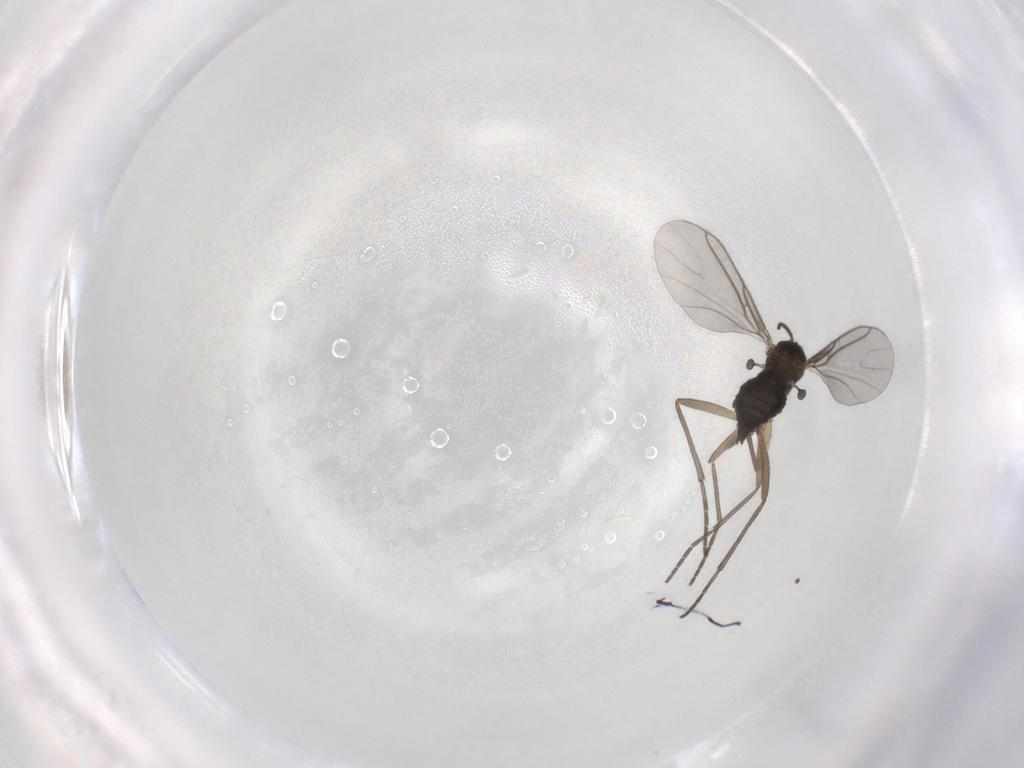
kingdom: Animalia
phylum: Arthropoda
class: Insecta
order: Diptera
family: Sciaridae
